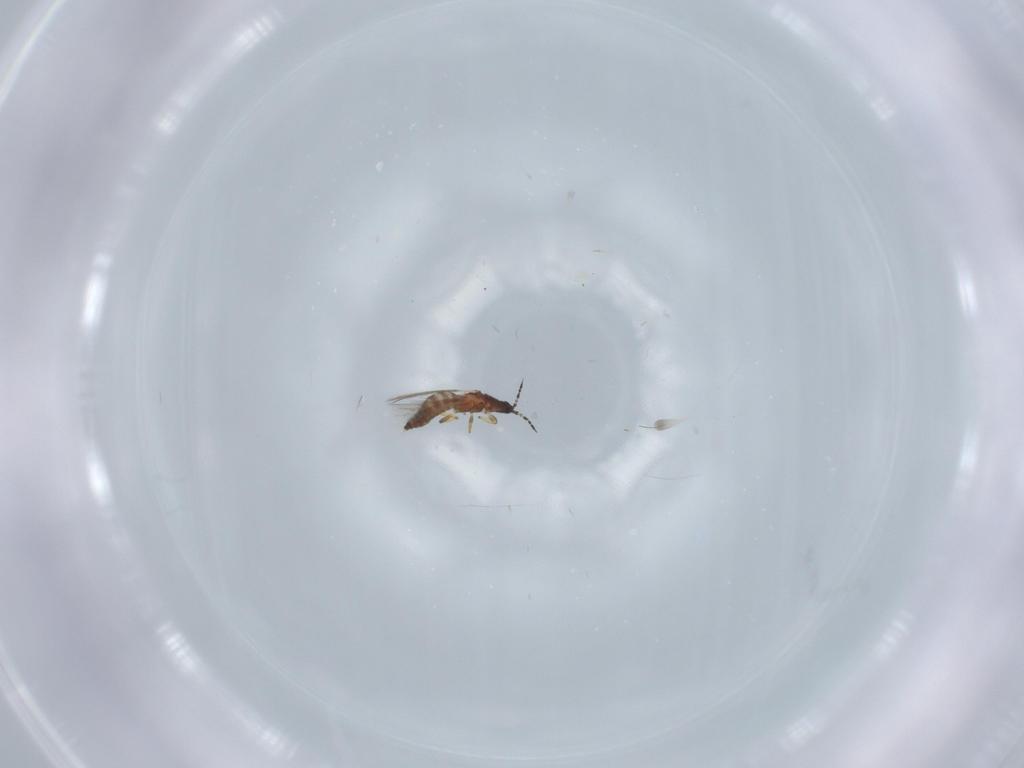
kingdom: Animalia
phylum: Arthropoda
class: Insecta
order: Thysanoptera
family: Thripidae
